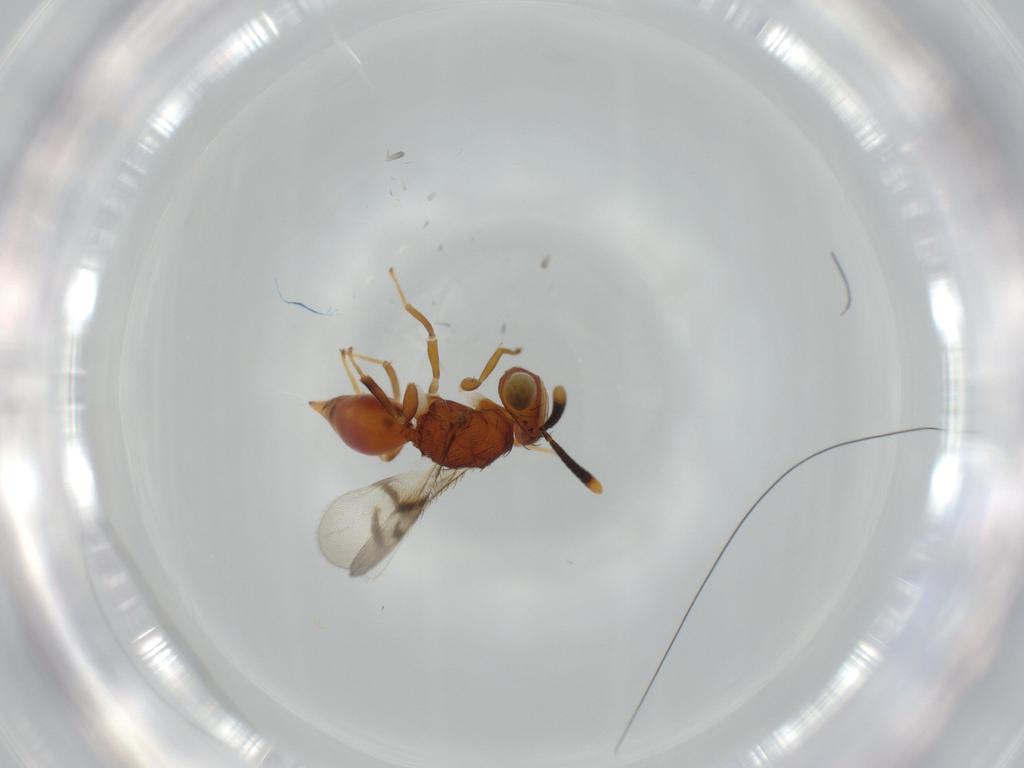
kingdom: Animalia
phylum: Arthropoda
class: Insecta
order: Hymenoptera
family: Diparidae
